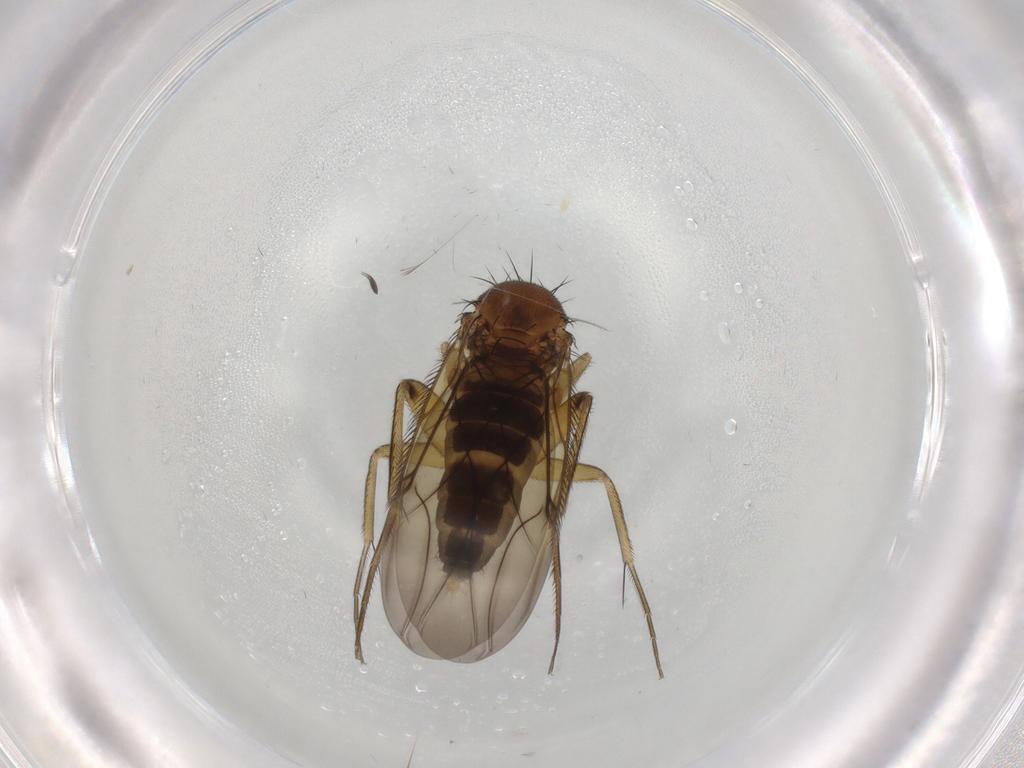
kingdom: Animalia
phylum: Arthropoda
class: Insecta
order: Diptera
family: Phoridae
